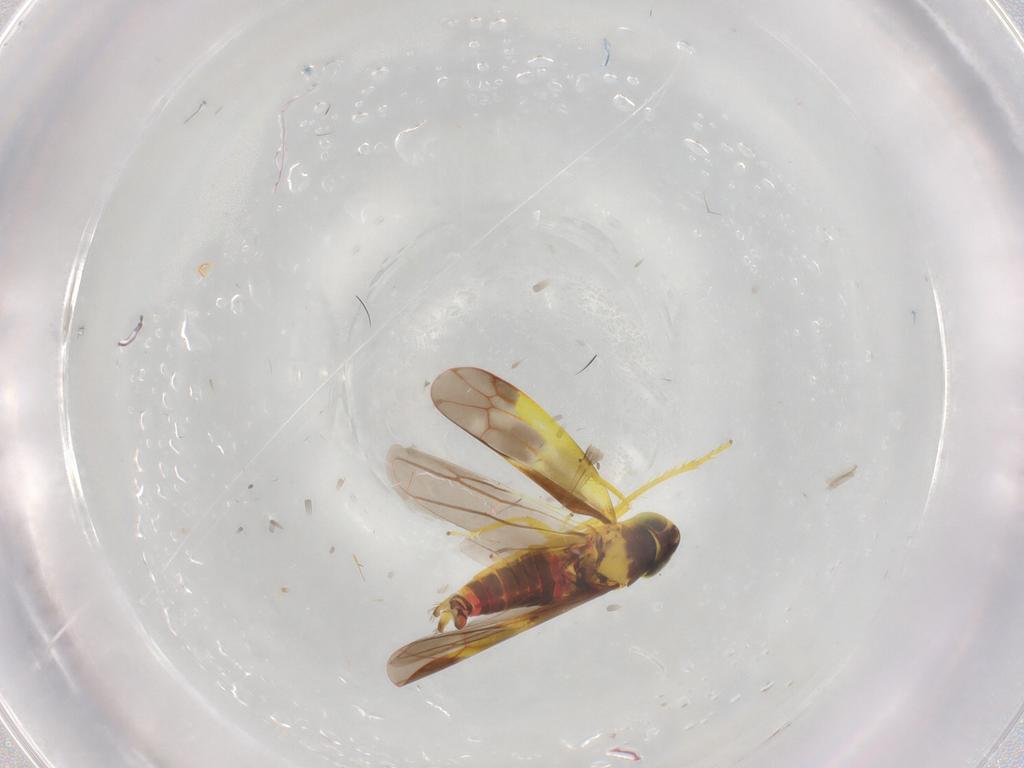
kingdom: Animalia
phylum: Arthropoda
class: Insecta
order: Hemiptera
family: Cicadellidae
